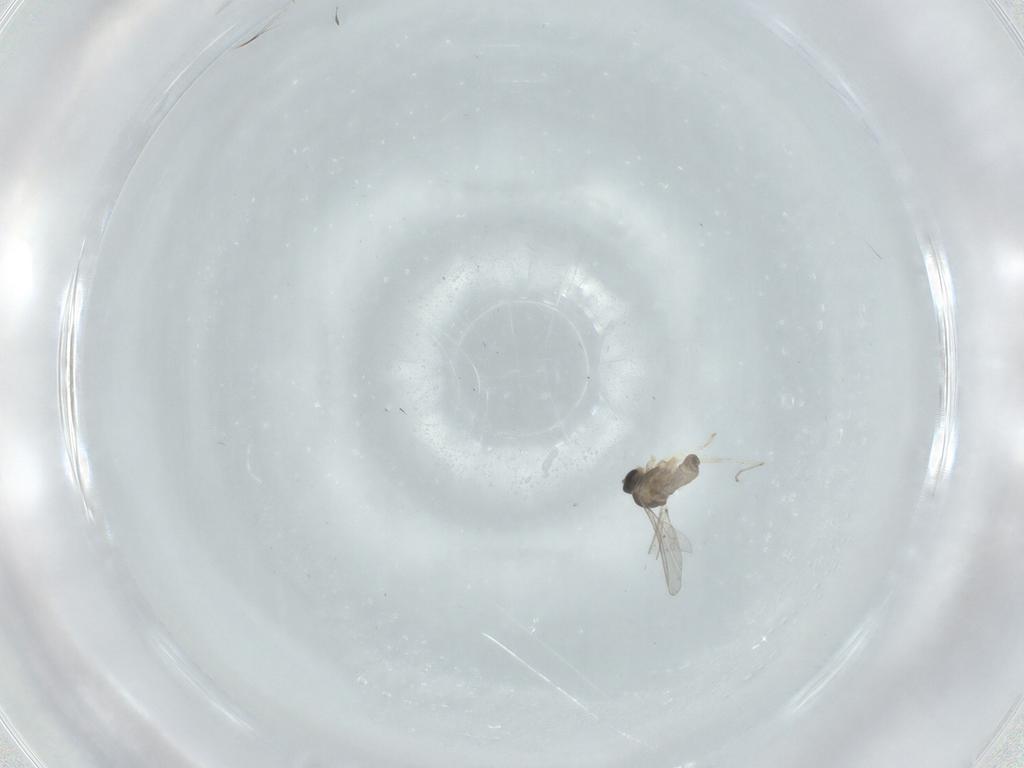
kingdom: Animalia
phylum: Arthropoda
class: Insecta
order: Diptera
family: Cecidomyiidae
